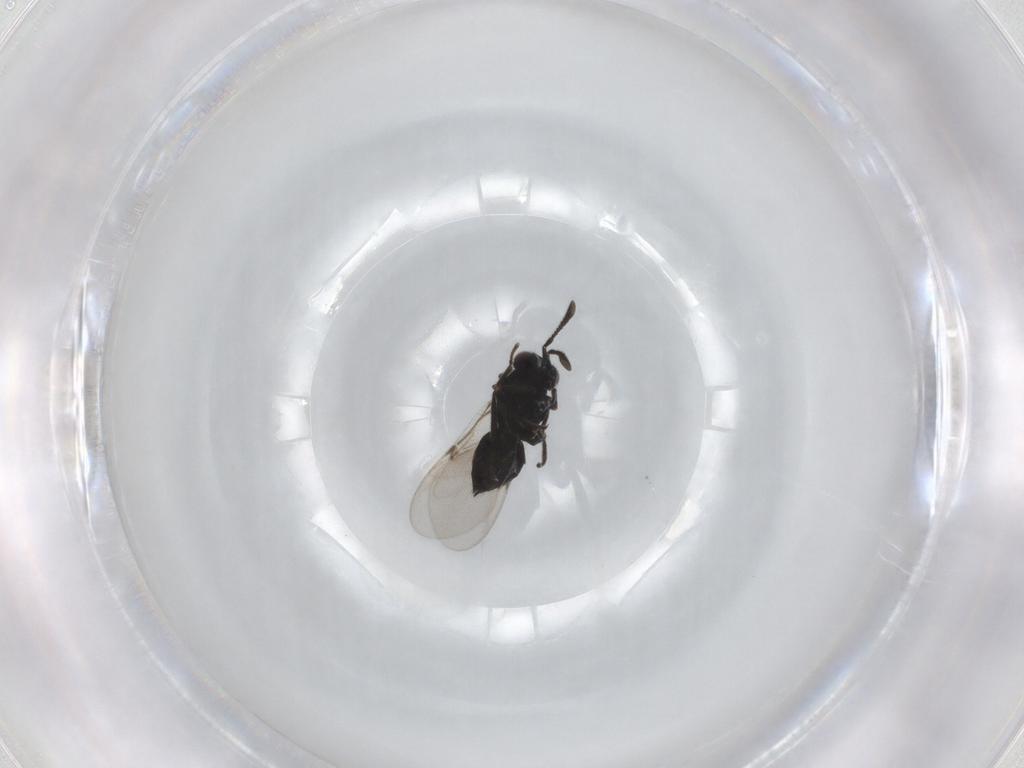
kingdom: Animalia
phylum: Arthropoda
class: Insecta
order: Hymenoptera
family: Encyrtidae
